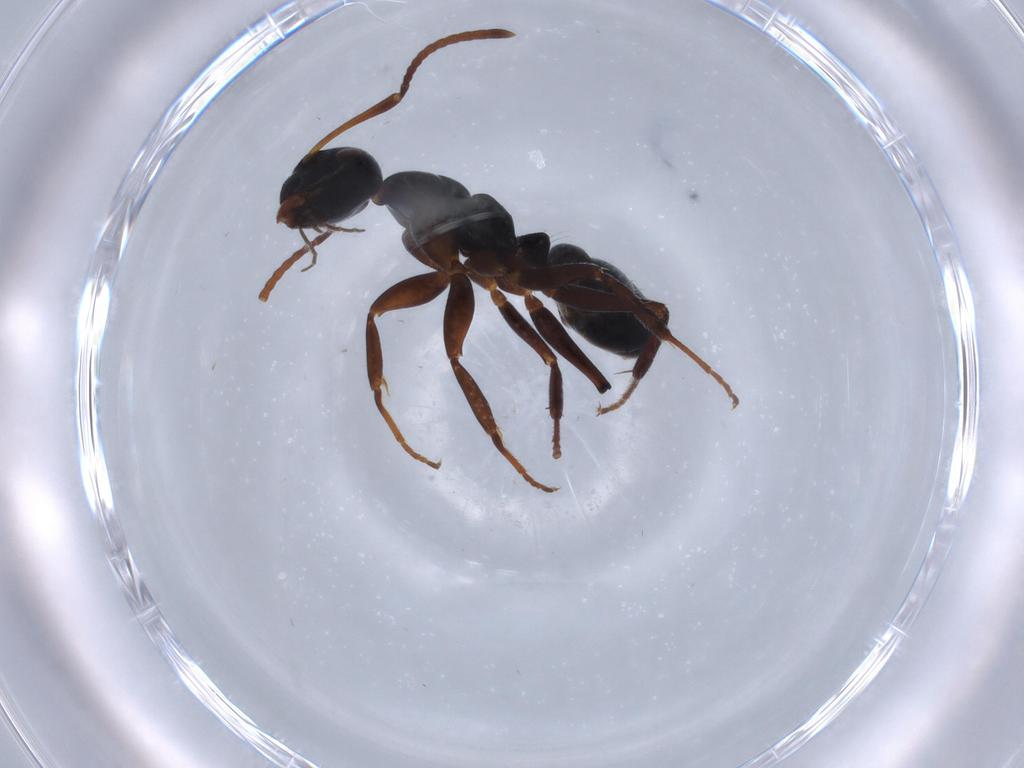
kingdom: Animalia
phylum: Arthropoda
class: Insecta
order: Hymenoptera
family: Formicidae
